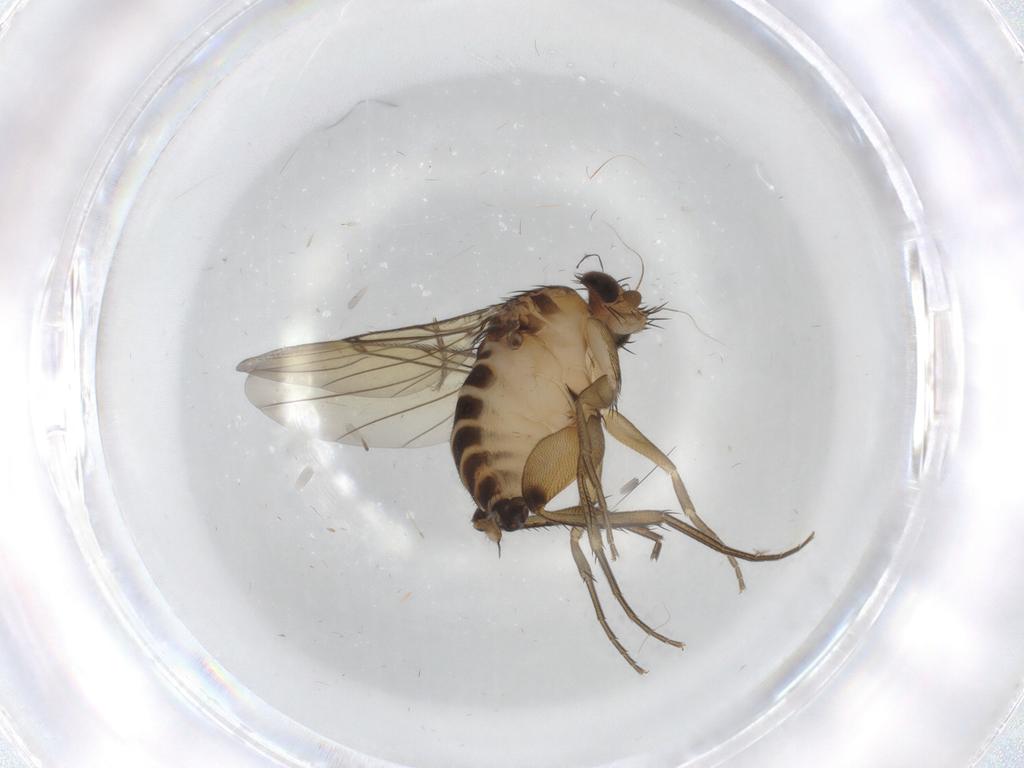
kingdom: Animalia
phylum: Arthropoda
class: Insecta
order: Diptera
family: Phoridae
